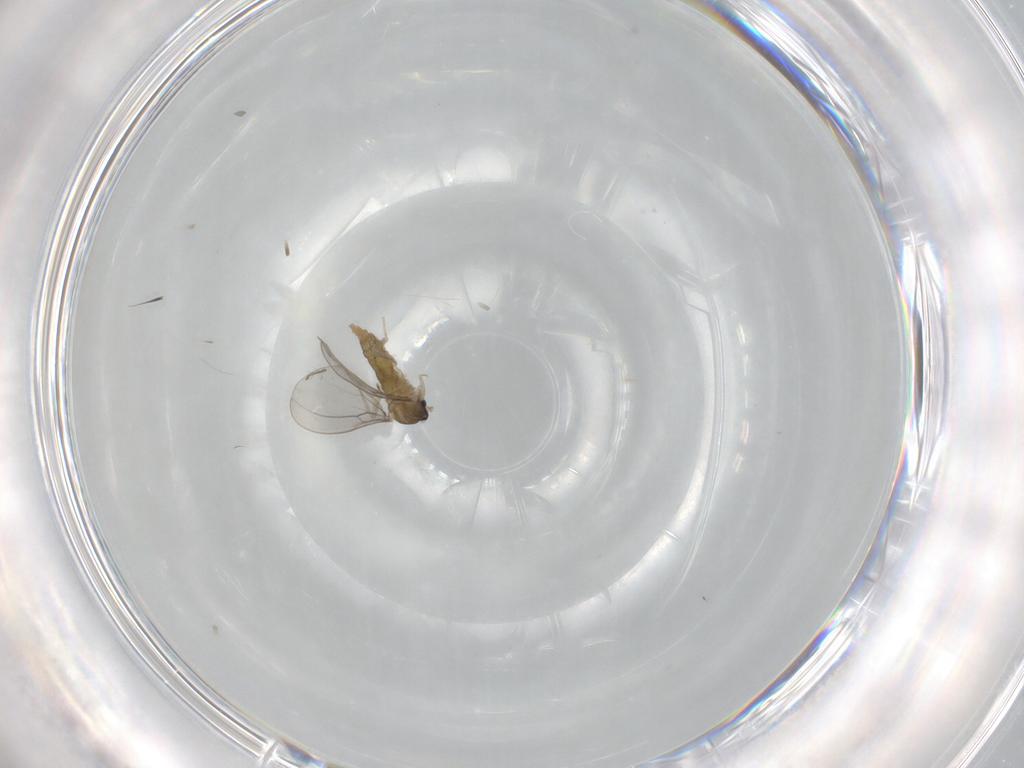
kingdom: Animalia
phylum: Arthropoda
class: Insecta
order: Diptera
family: Cecidomyiidae
